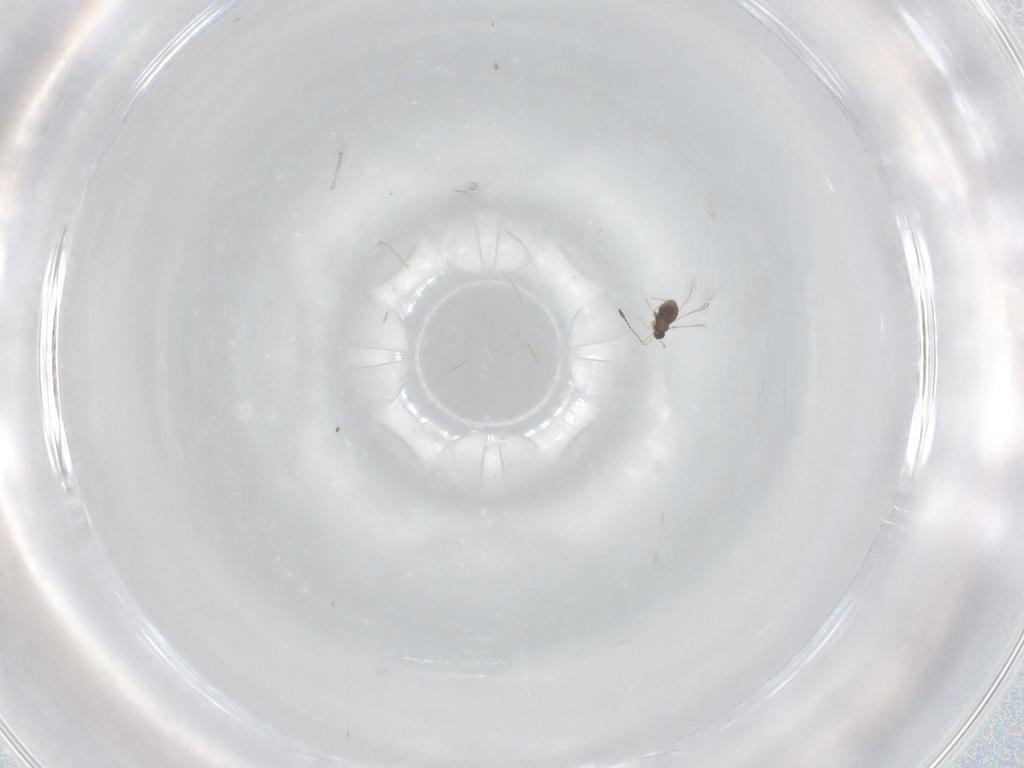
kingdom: Animalia
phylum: Arthropoda
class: Insecta
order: Hymenoptera
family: Mymaridae
